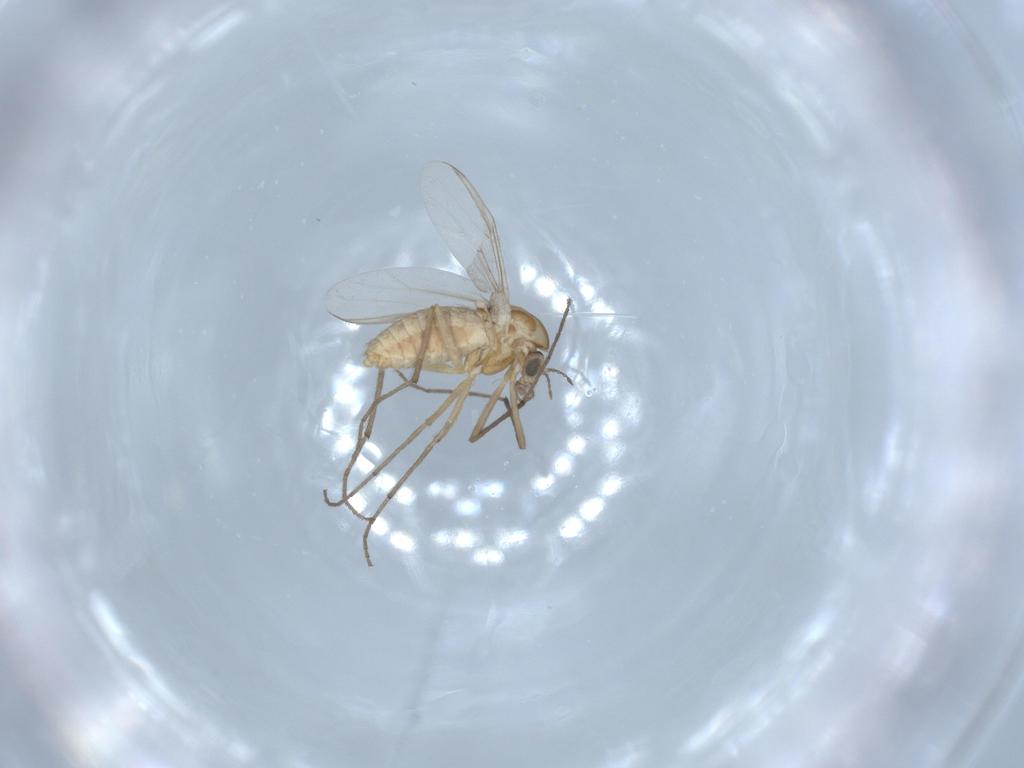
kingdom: Animalia
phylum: Arthropoda
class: Insecta
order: Diptera
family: Chironomidae
